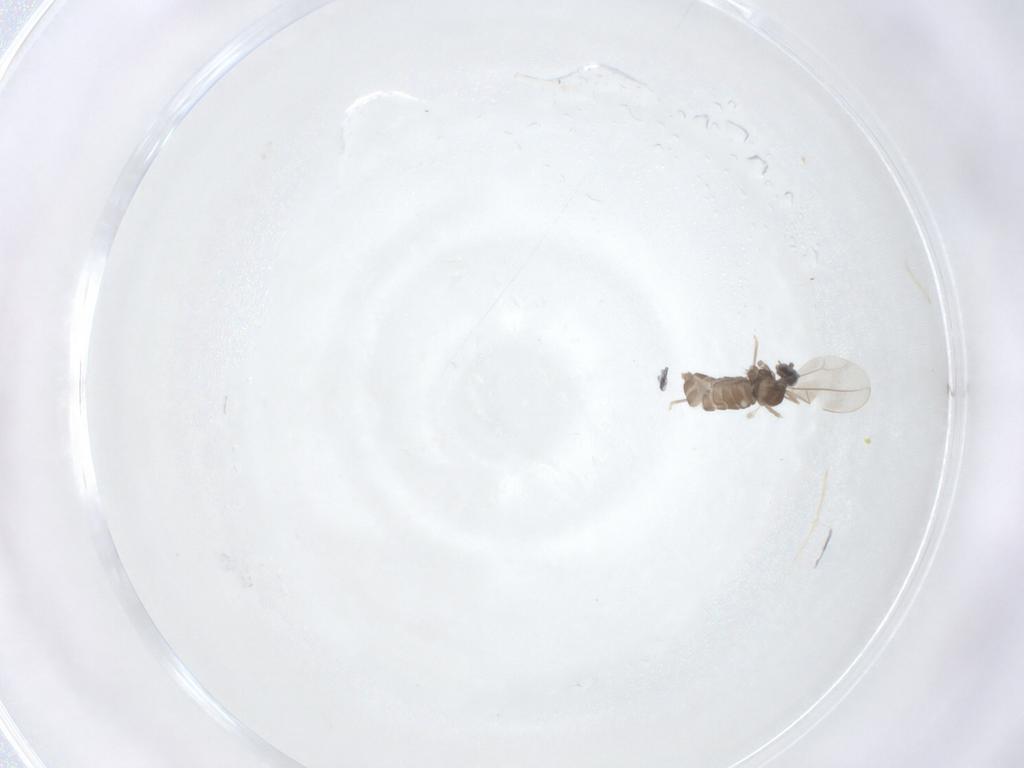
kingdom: Animalia
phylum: Arthropoda
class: Insecta
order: Diptera
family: Cecidomyiidae
